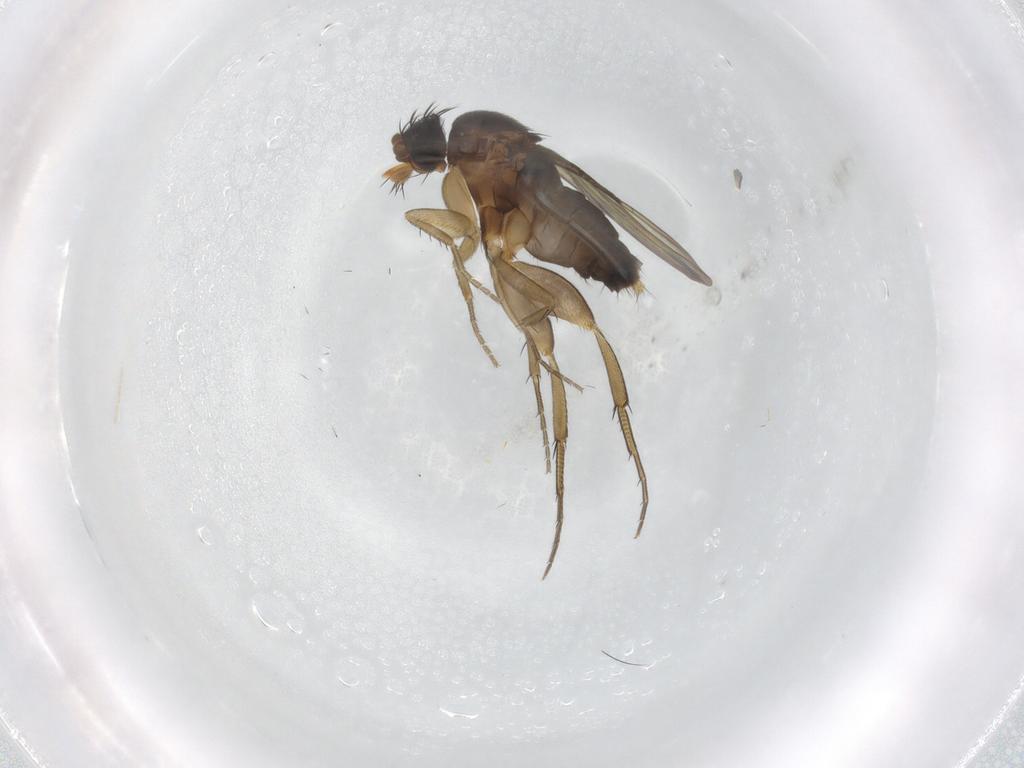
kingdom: Animalia
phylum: Arthropoda
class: Insecta
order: Diptera
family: Phoridae
